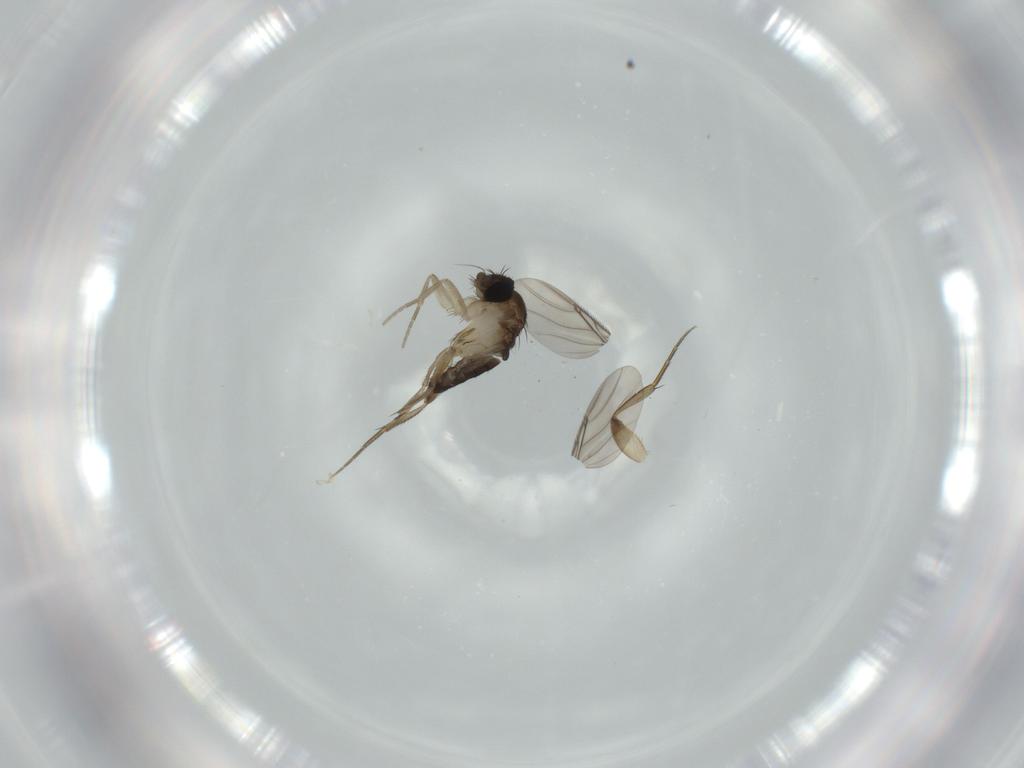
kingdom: Animalia
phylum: Arthropoda
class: Insecta
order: Diptera
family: Phoridae
